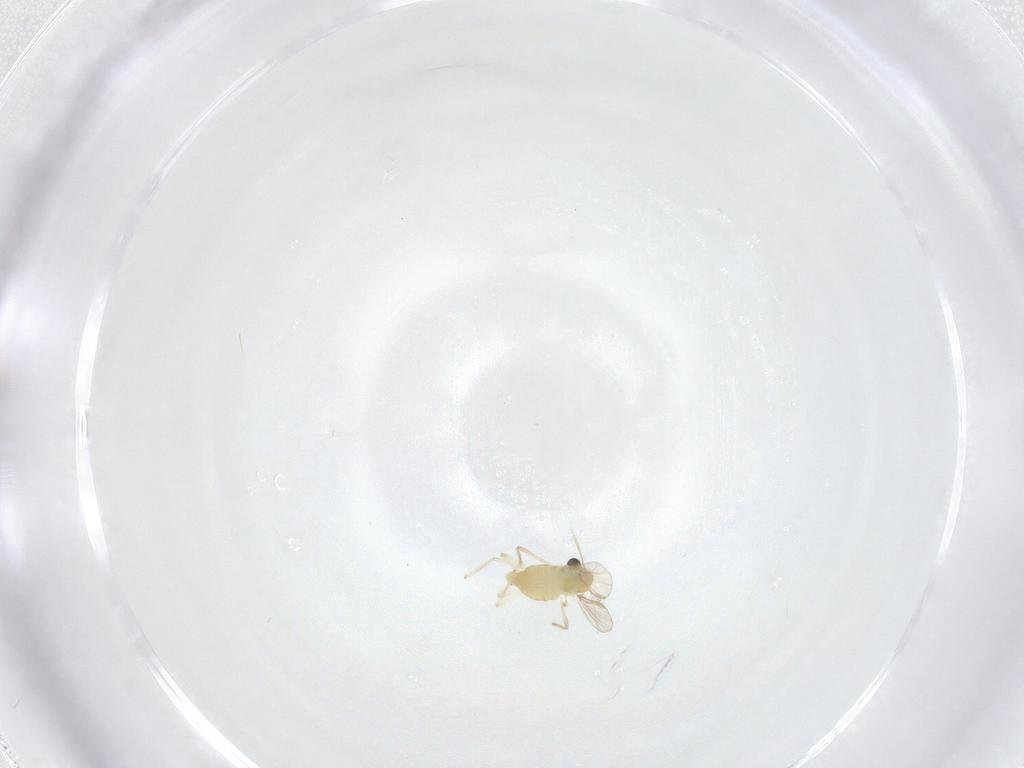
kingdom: Animalia
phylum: Arthropoda
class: Insecta
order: Diptera
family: Chironomidae
